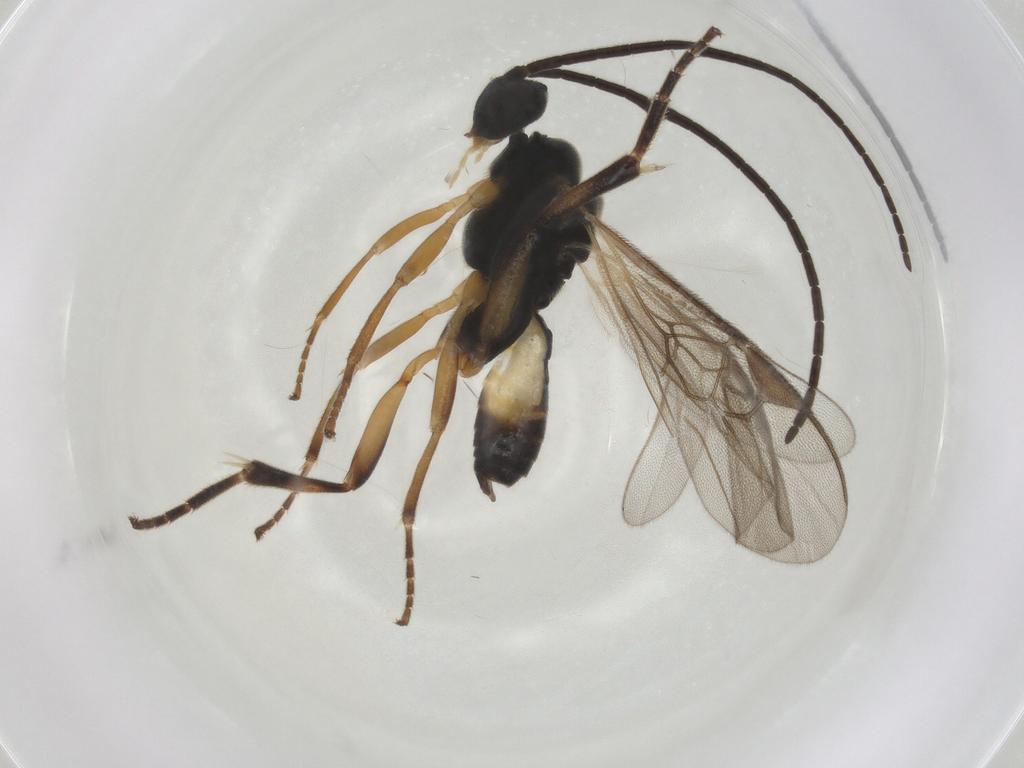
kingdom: Animalia
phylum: Arthropoda
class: Insecta
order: Hymenoptera
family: Braconidae
